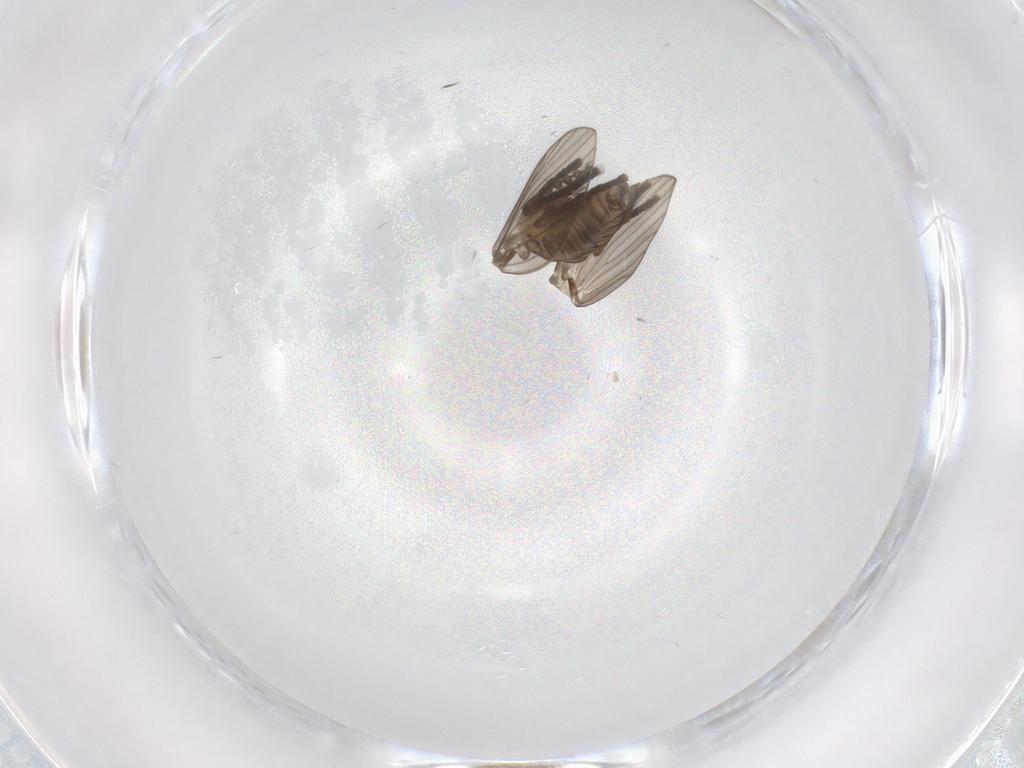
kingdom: Animalia
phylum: Arthropoda
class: Insecta
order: Diptera
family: Psychodidae
